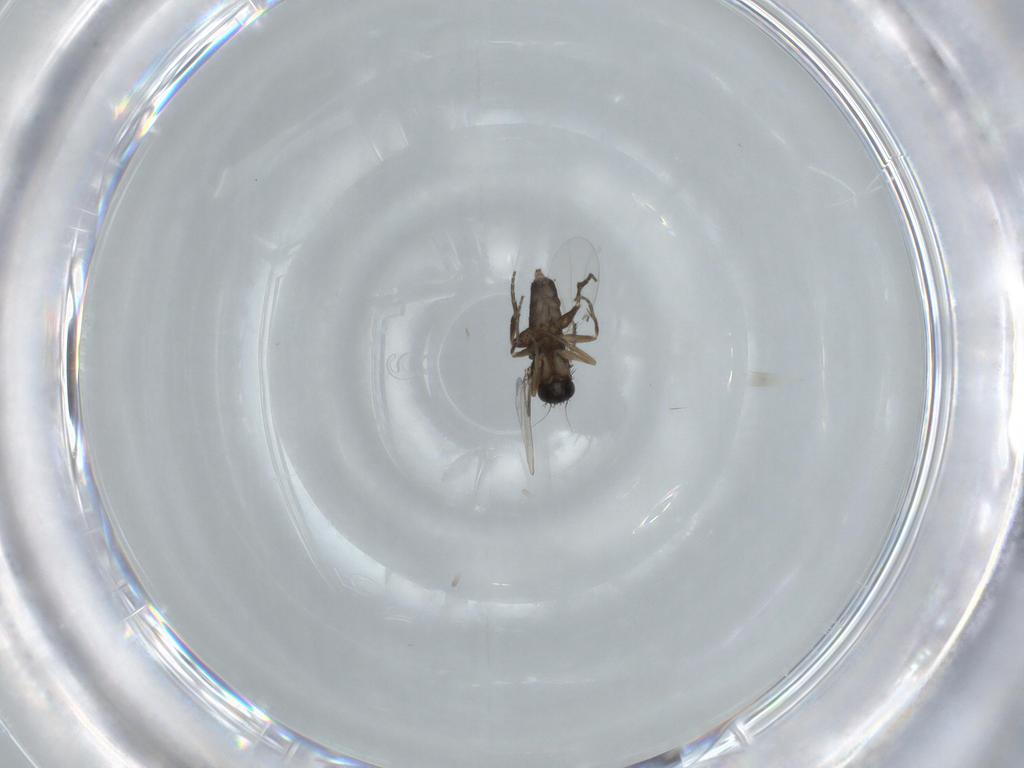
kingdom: Animalia
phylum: Arthropoda
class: Insecta
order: Diptera
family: Phoridae
